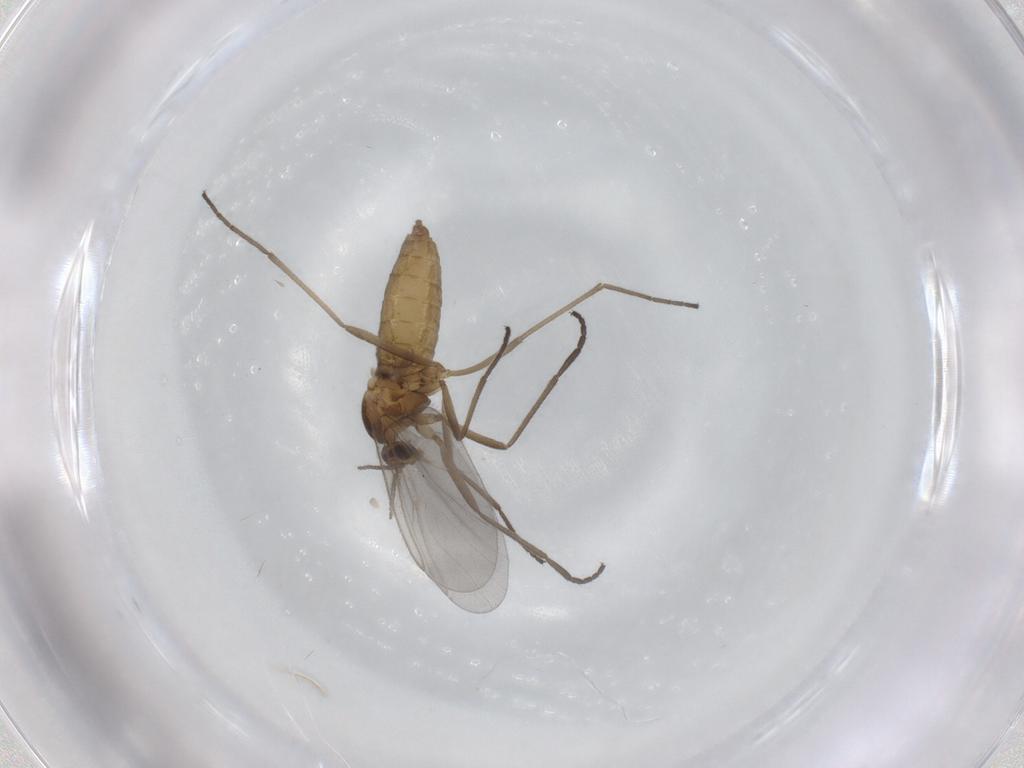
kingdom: Animalia
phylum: Arthropoda
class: Insecta
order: Diptera
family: Cecidomyiidae
